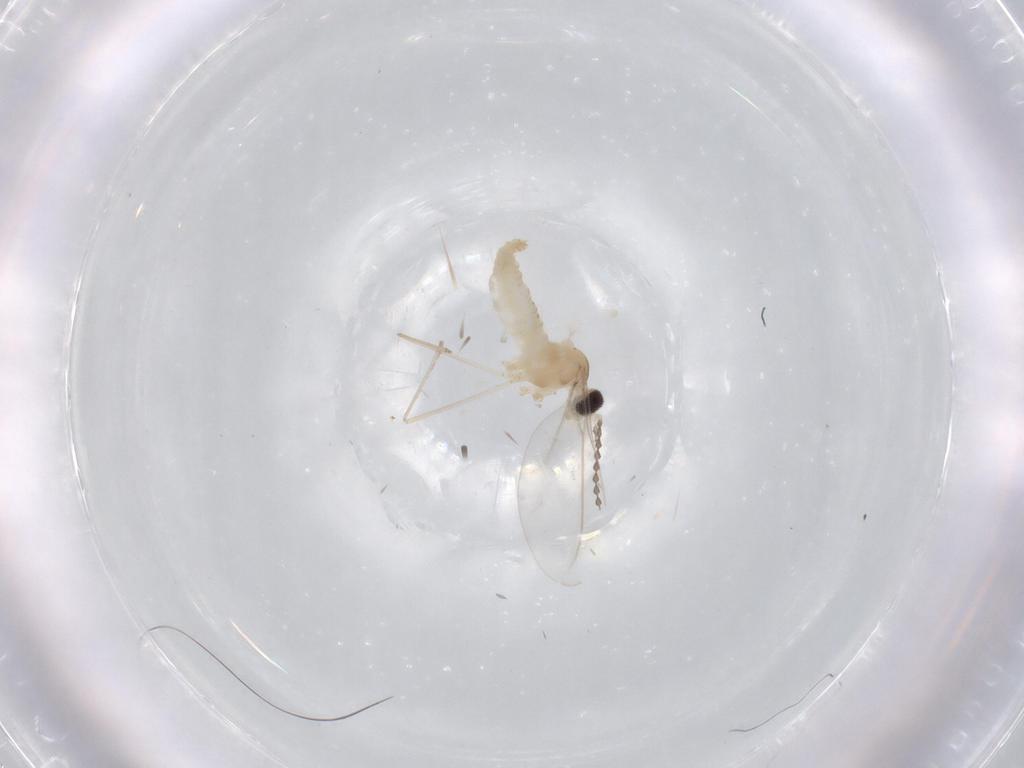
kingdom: Animalia
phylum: Arthropoda
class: Insecta
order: Diptera
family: Cecidomyiidae
